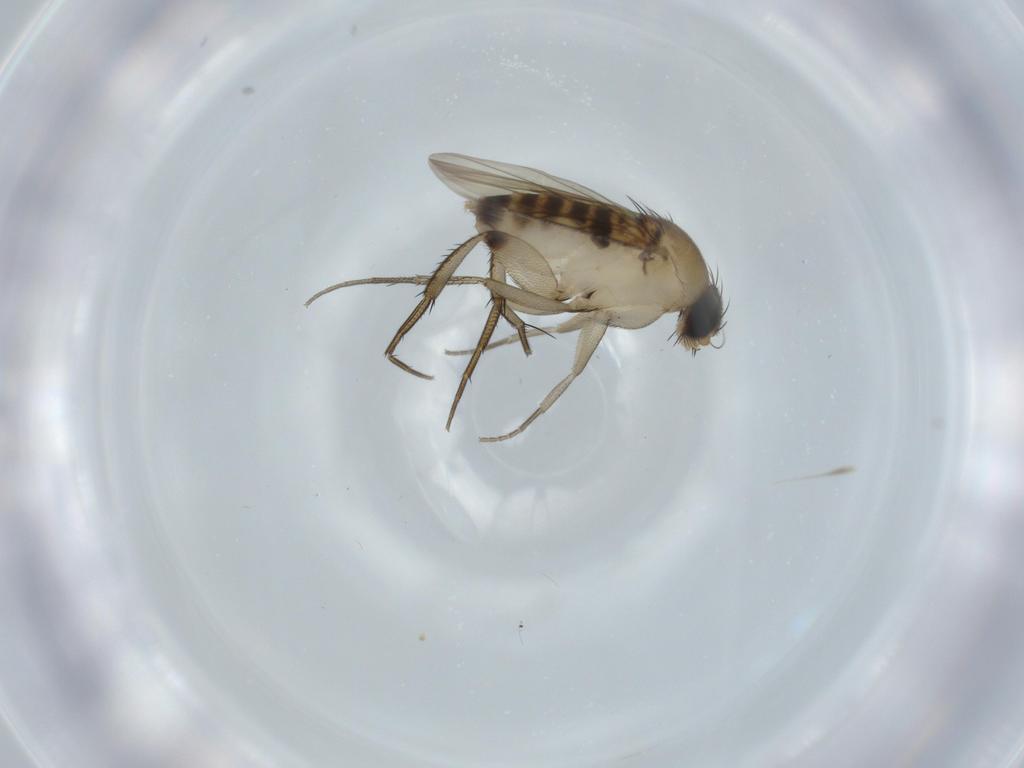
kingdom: Animalia
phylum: Arthropoda
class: Insecta
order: Diptera
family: Phoridae
